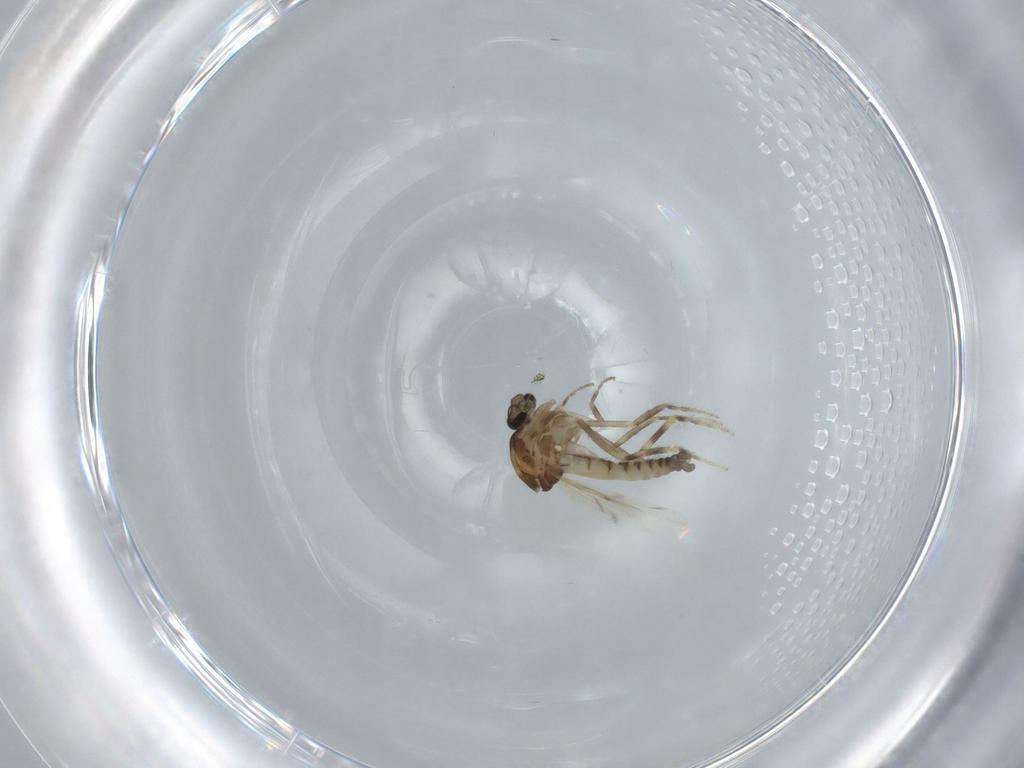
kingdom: Animalia
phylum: Arthropoda
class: Insecta
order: Diptera
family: Ceratopogonidae
